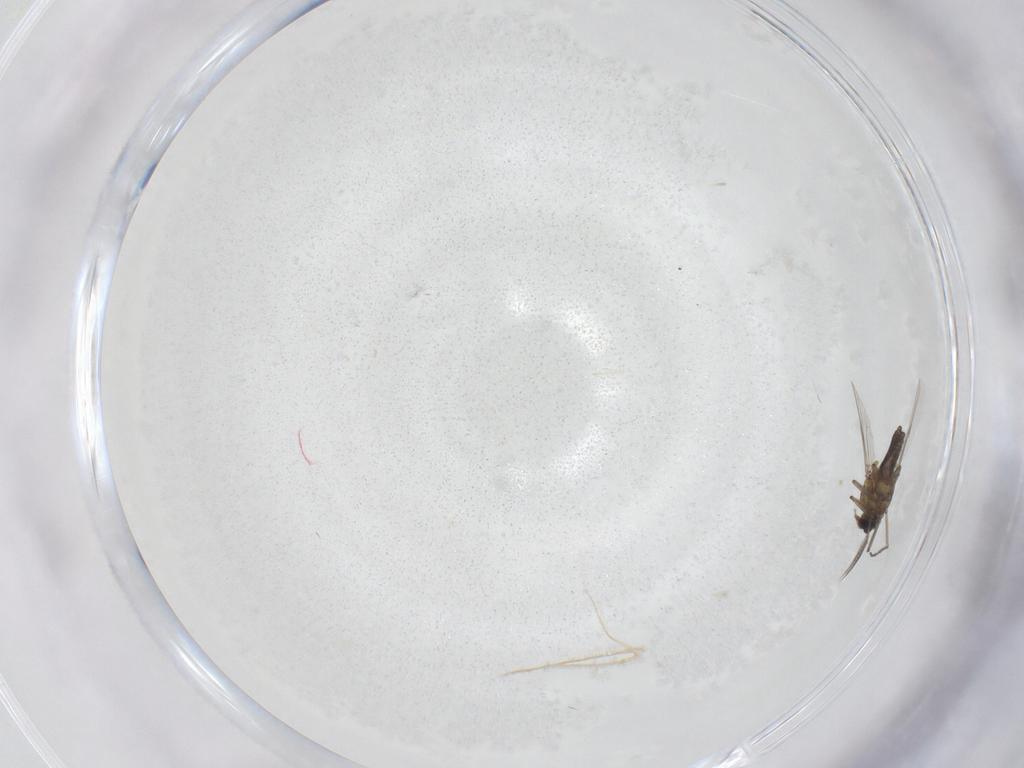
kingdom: Animalia
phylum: Arthropoda
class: Insecta
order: Diptera
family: Ceratopogonidae
